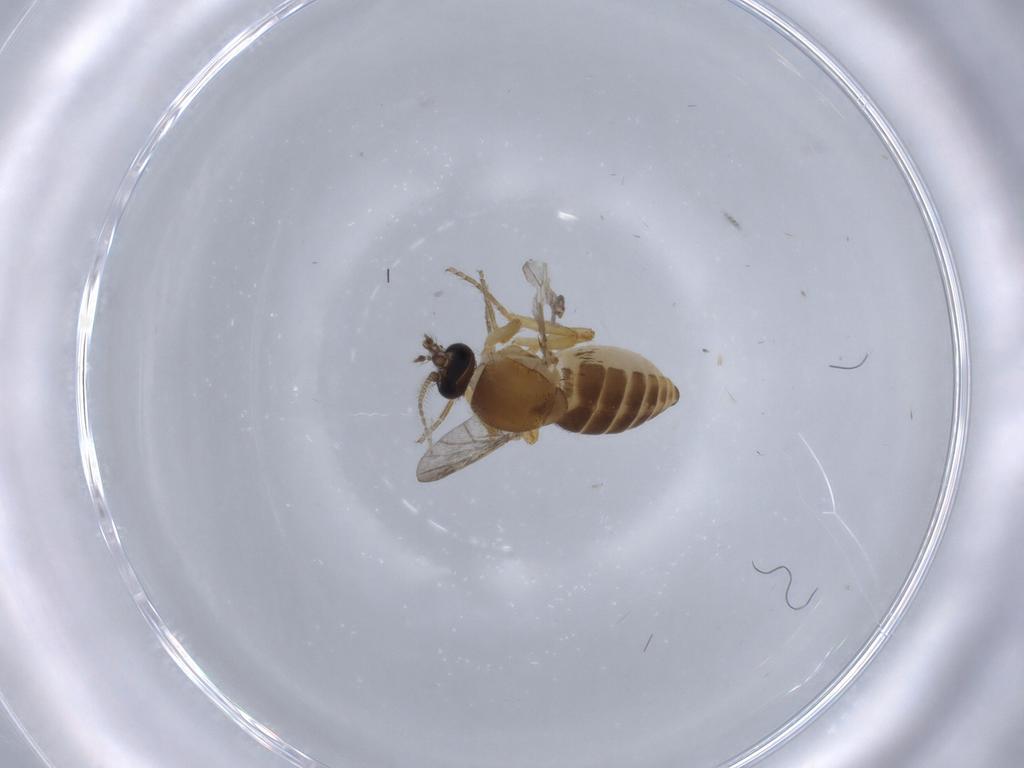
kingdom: Animalia
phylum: Arthropoda
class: Insecta
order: Diptera
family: Ceratopogonidae
